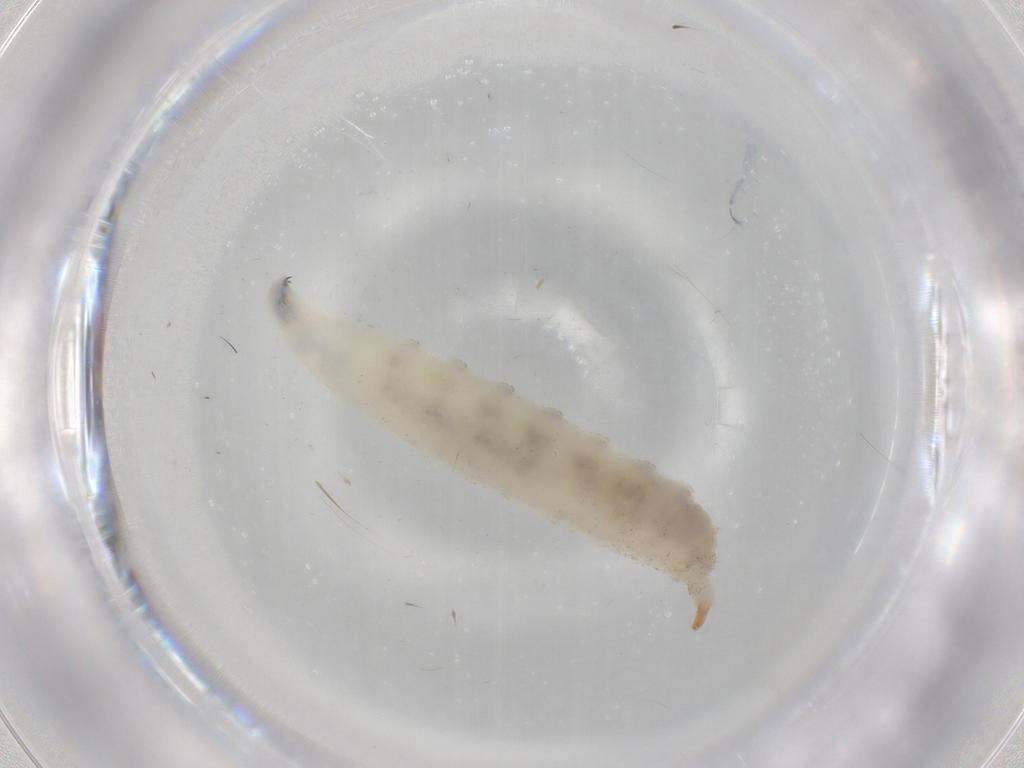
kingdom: Animalia
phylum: Arthropoda
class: Insecta
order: Diptera
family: Drosophilidae
